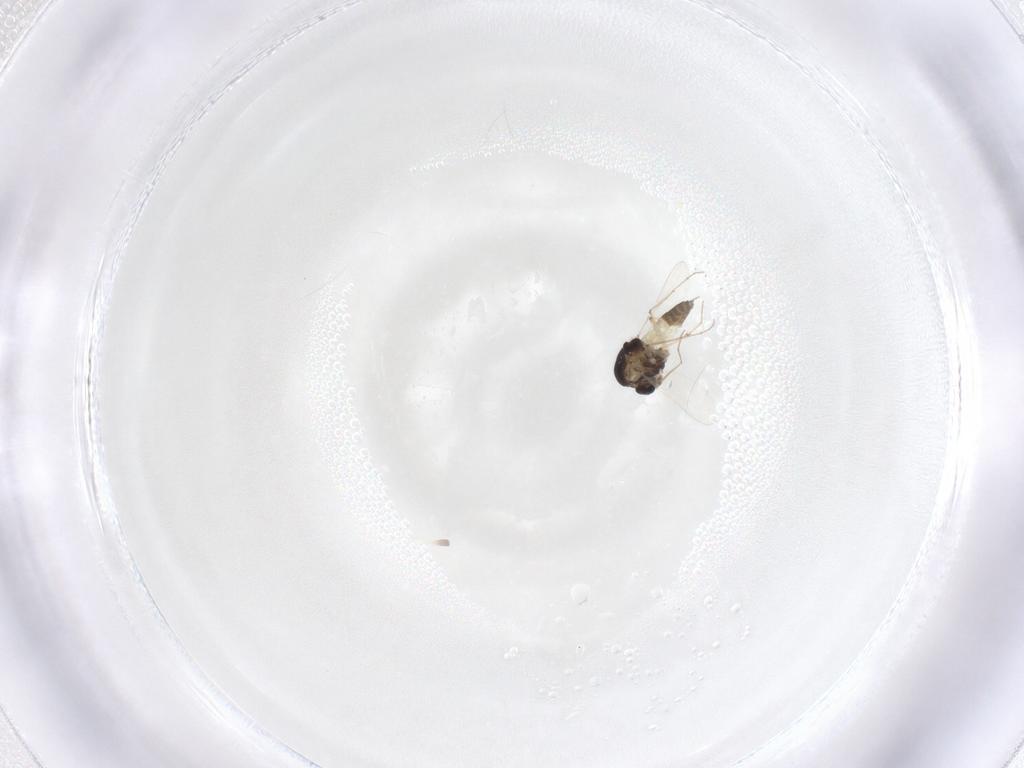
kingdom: Animalia
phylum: Arthropoda
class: Insecta
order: Diptera
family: Chironomidae
